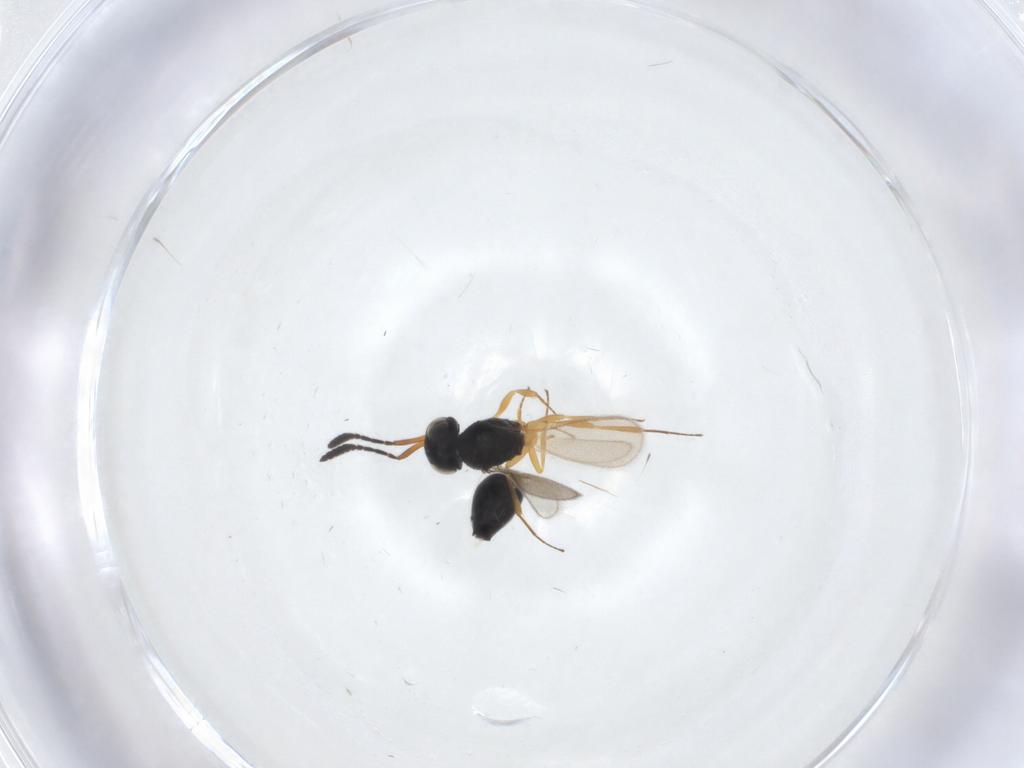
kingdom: Animalia
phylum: Arthropoda
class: Insecta
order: Hymenoptera
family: Scelionidae
